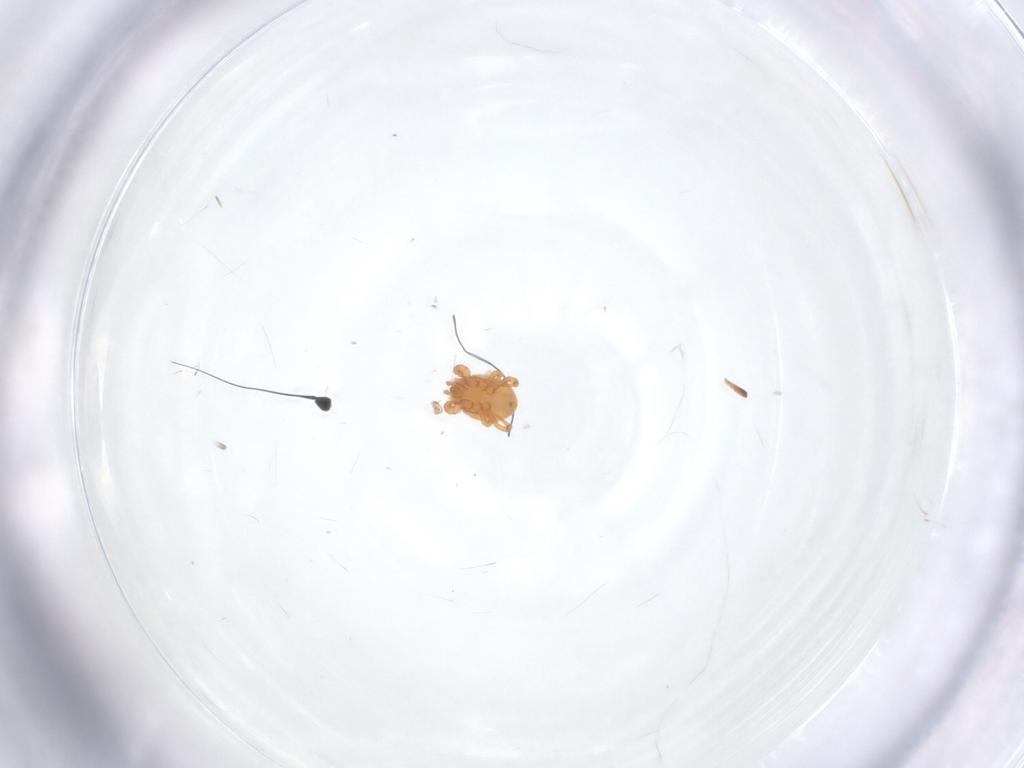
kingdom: Animalia
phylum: Arthropoda
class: Arachnida
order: Mesostigmata
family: Parasitidae
